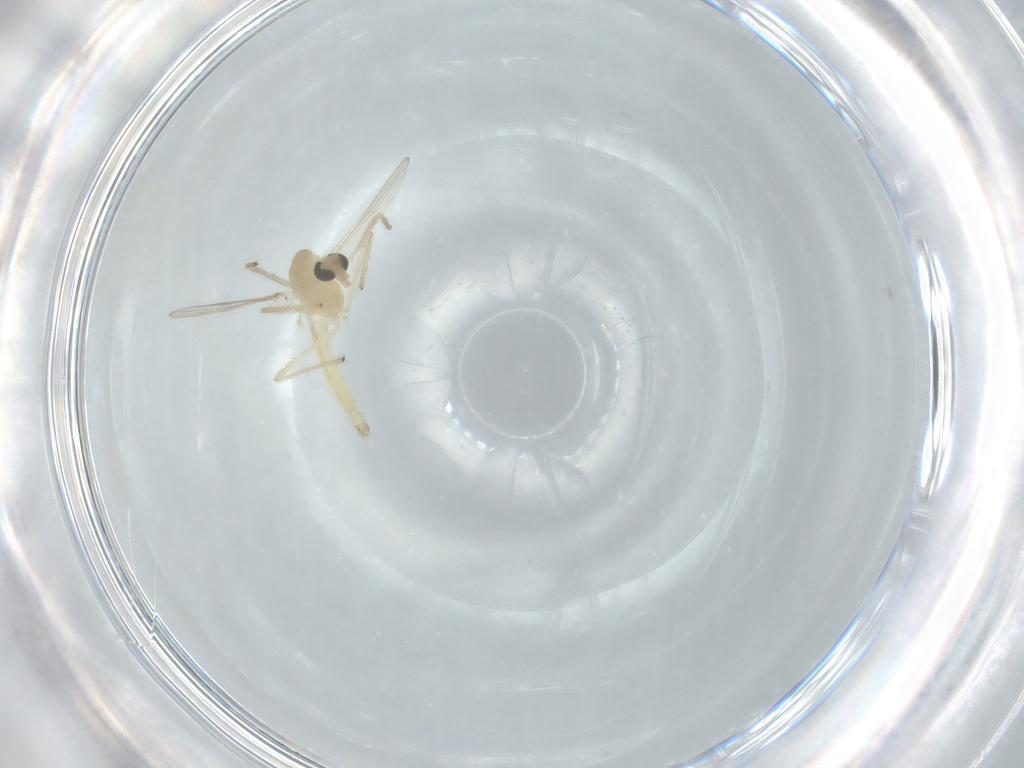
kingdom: Animalia
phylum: Arthropoda
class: Insecta
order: Diptera
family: Chironomidae
